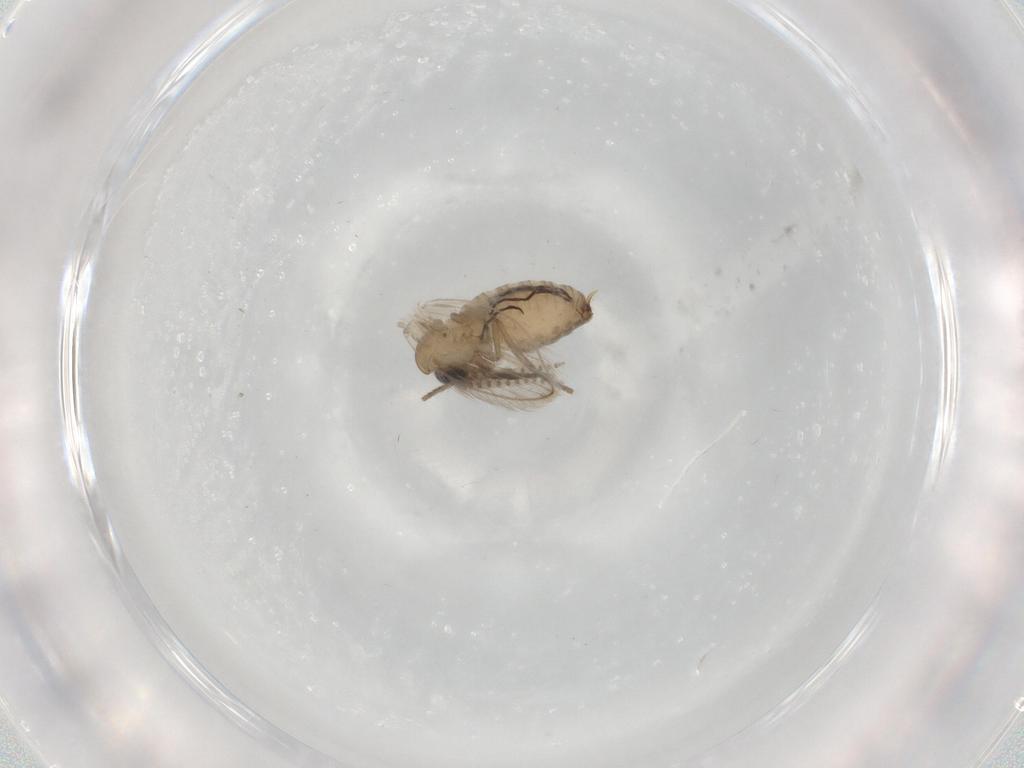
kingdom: Animalia
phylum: Arthropoda
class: Insecta
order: Diptera
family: Psychodidae
